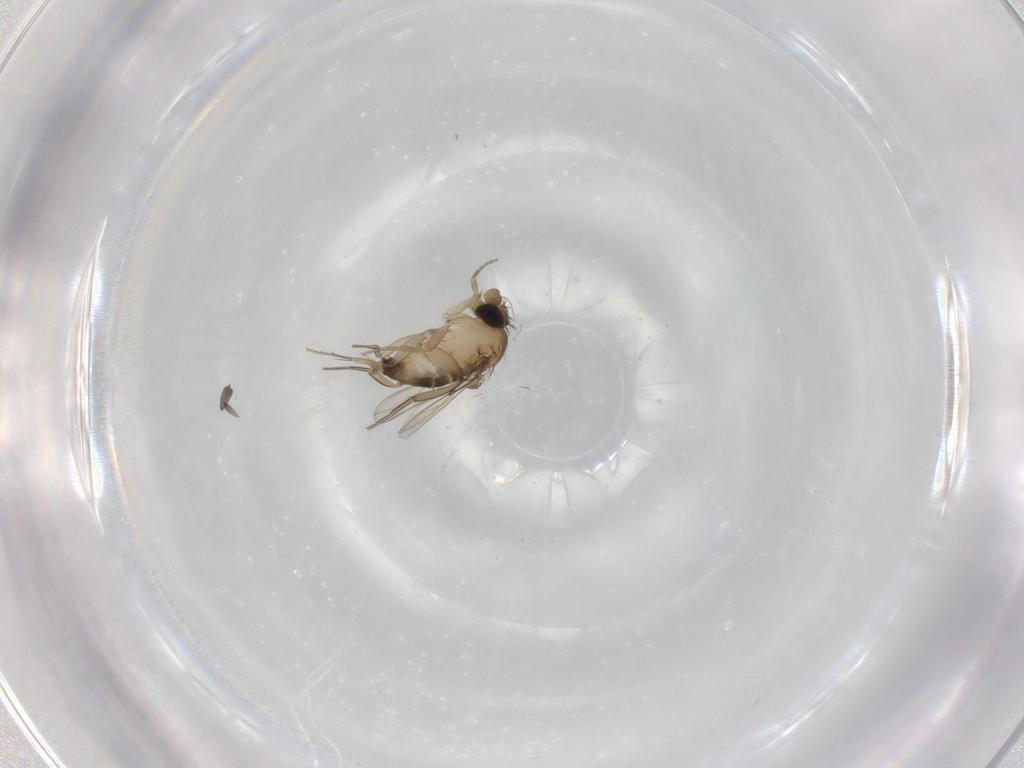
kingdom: Animalia
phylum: Arthropoda
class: Insecta
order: Diptera
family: Phoridae
